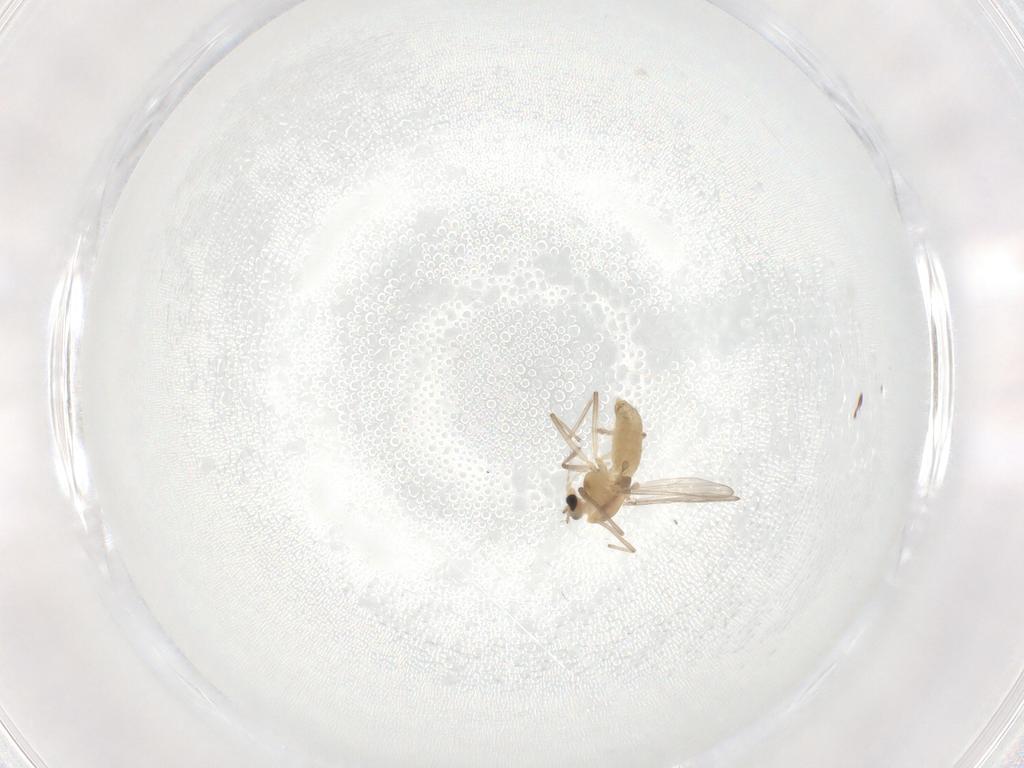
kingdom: Animalia
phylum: Arthropoda
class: Insecta
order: Diptera
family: Chironomidae
